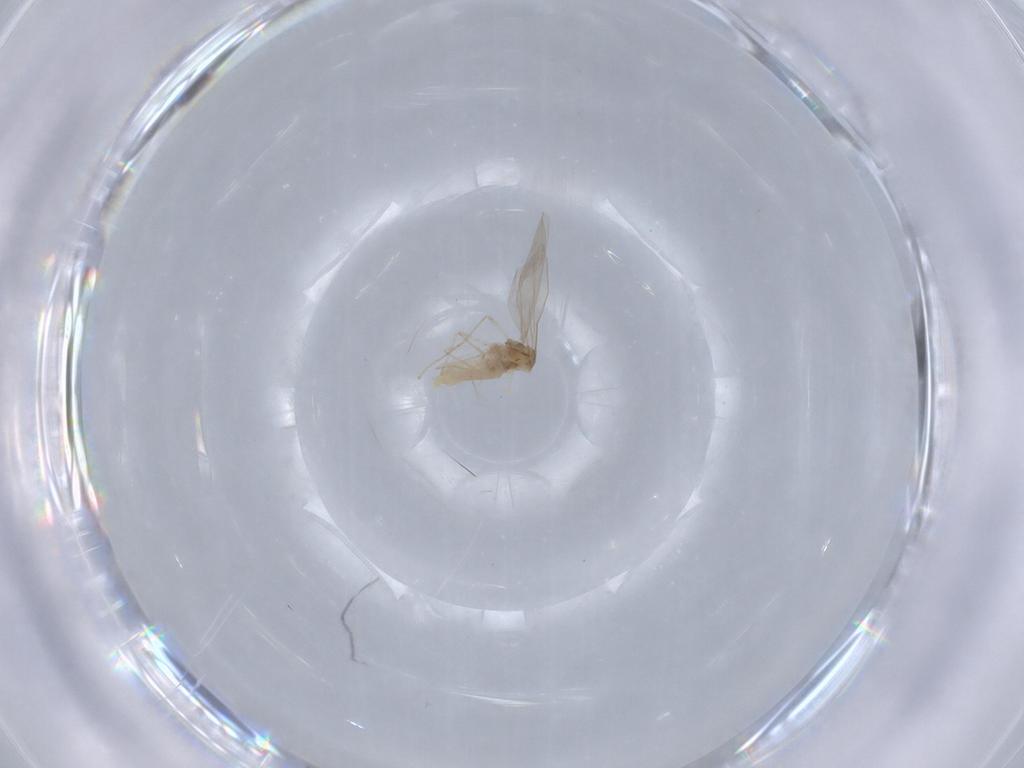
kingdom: Animalia
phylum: Arthropoda
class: Insecta
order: Diptera
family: Cecidomyiidae
